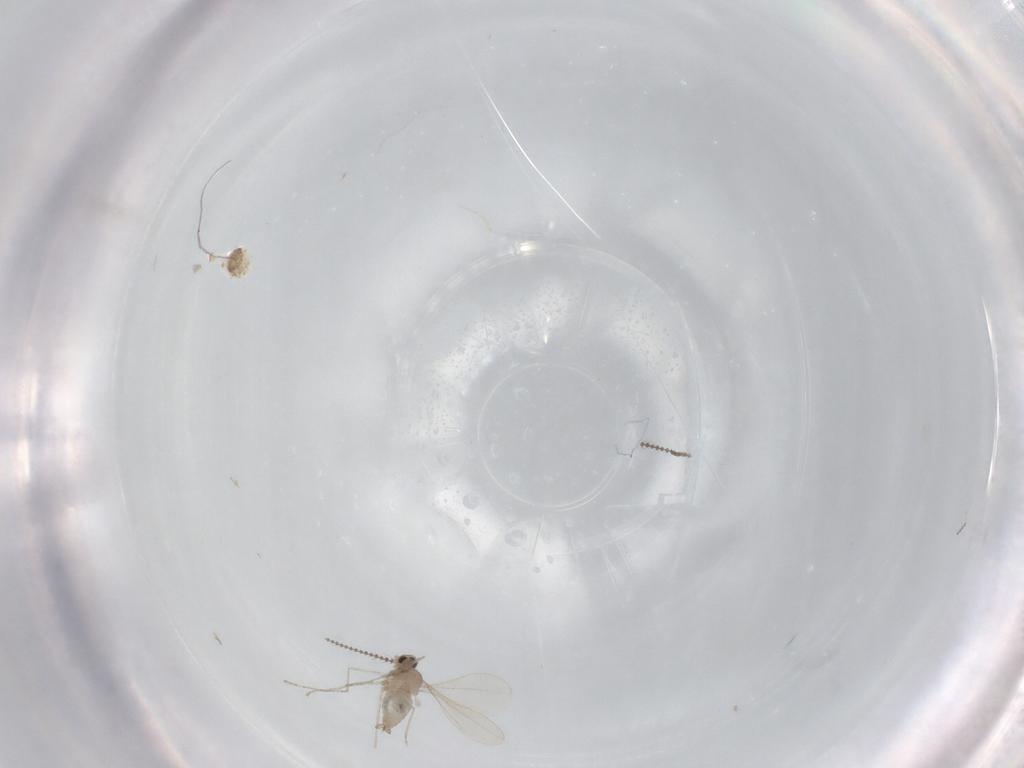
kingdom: Animalia
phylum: Arthropoda
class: Insecta
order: Diptera
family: Cecidomyiidae
